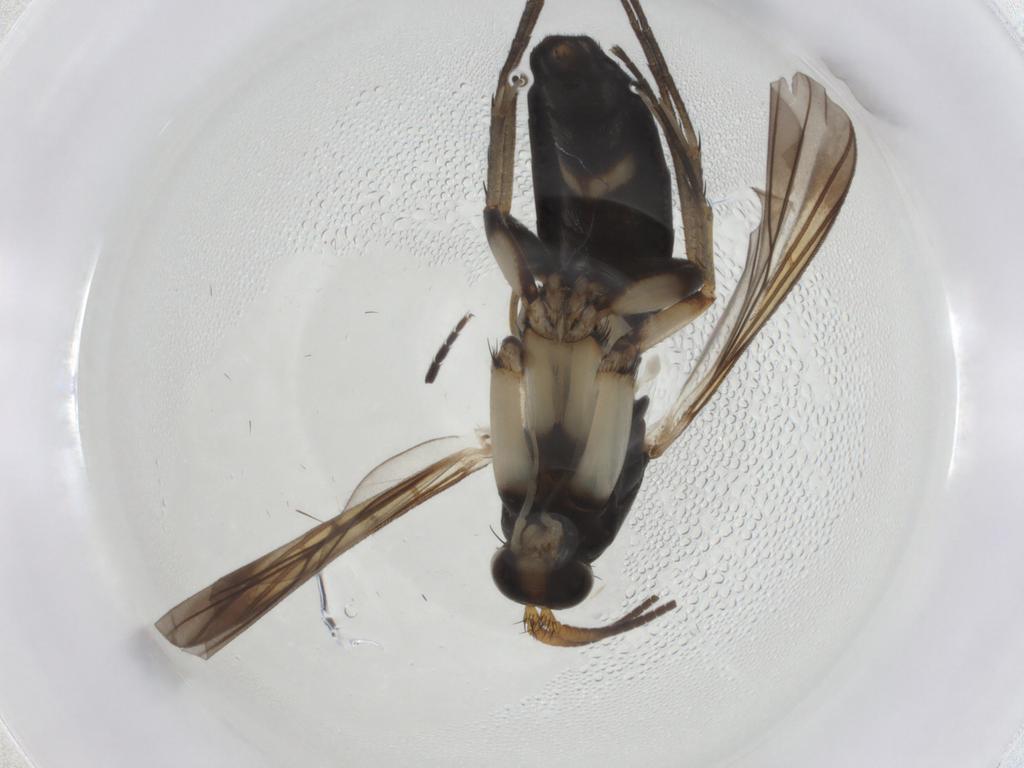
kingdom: Animalia
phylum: Arthropoda
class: Insecta
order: Diptera
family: Mycetophilidae
